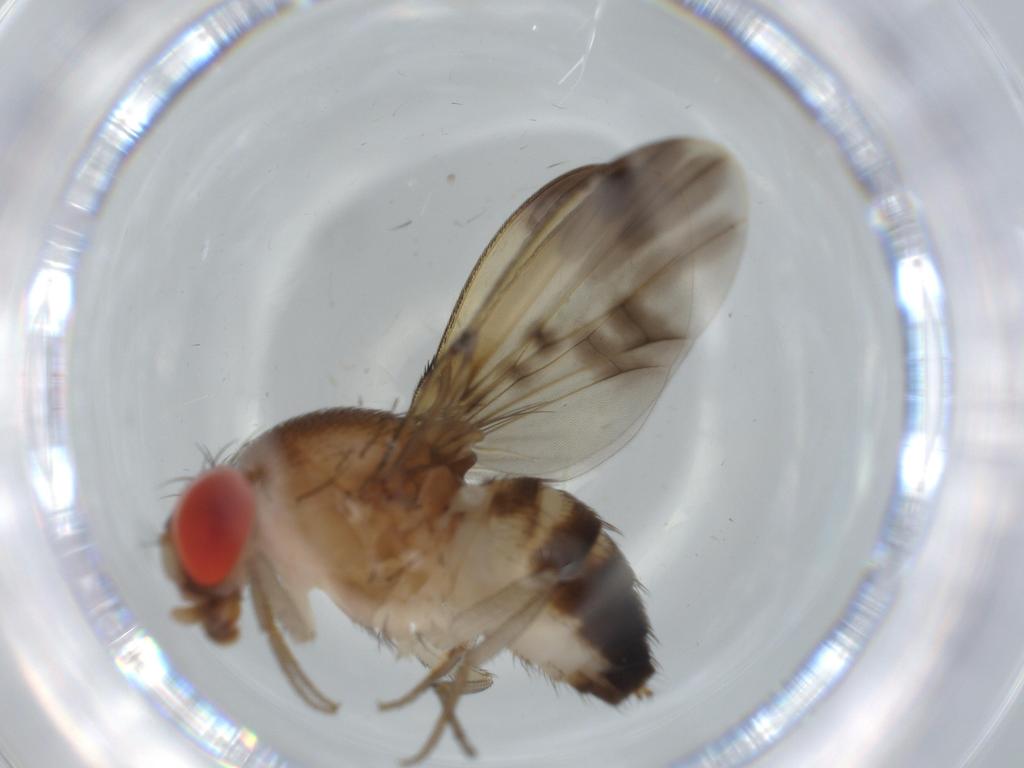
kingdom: Animalia
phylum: Arthropoda
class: Insecta
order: Diptera
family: Drosophilidae
